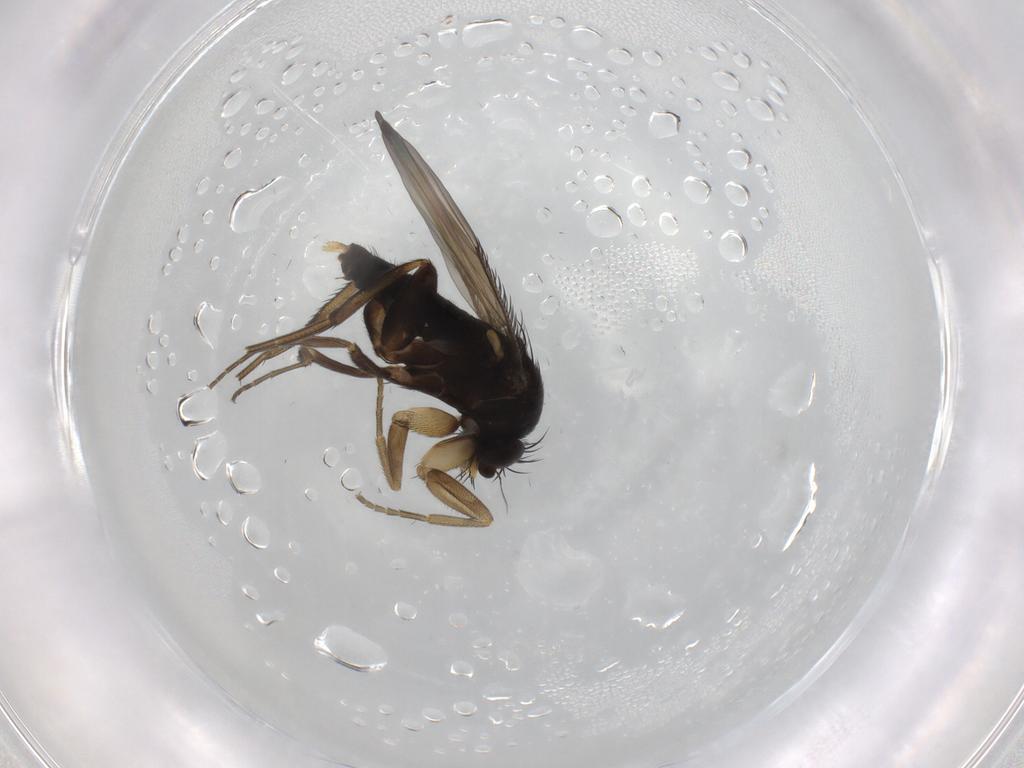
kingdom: Animalia
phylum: Arthropoda
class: Insecta
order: Diptera
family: Phoridae
